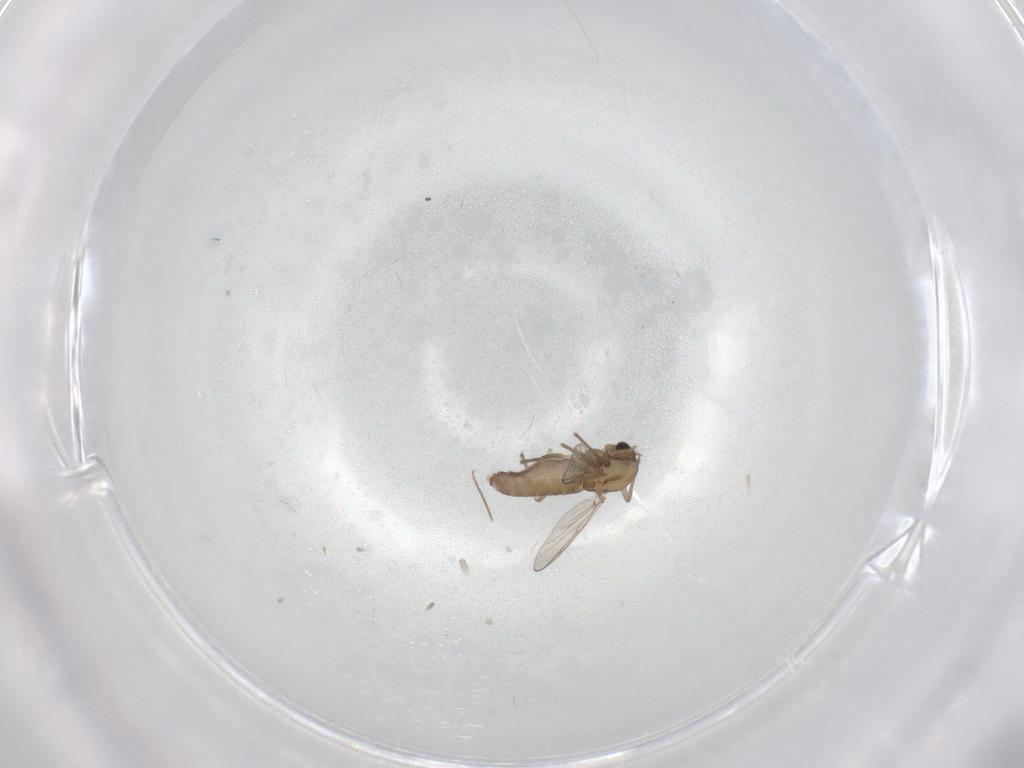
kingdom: Animalia
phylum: Arthropoda
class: Insecta
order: Diptera
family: Chironomidae
